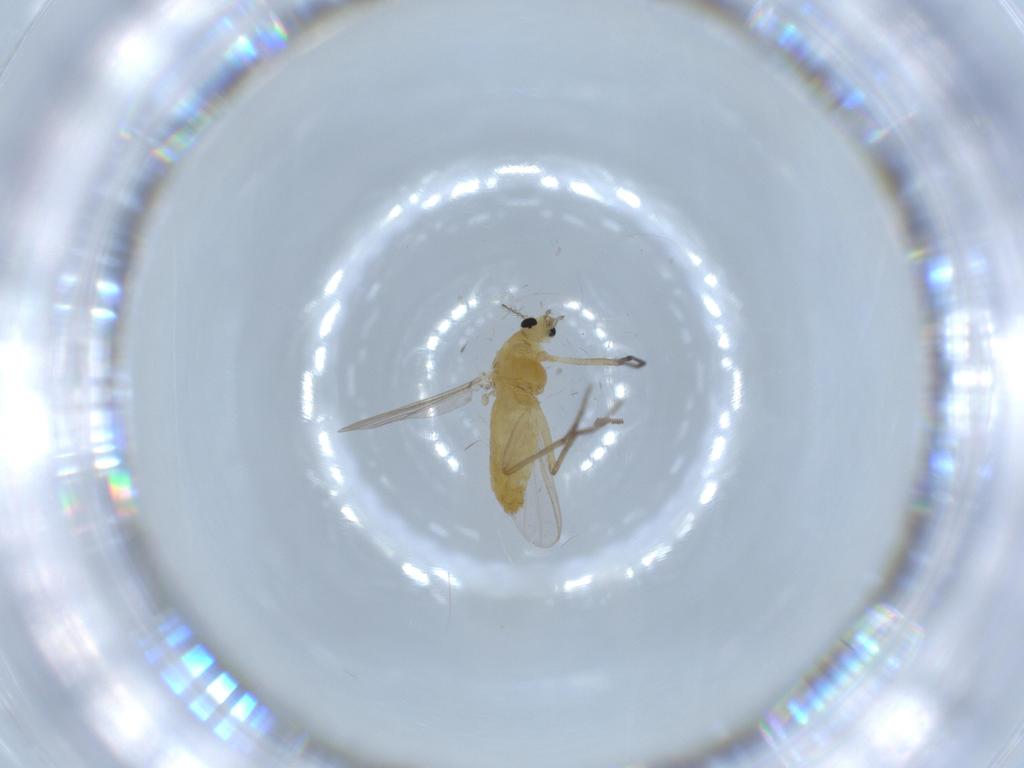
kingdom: Animalia
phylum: Arthropoda
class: Insecta
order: Diptera
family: Chironomidae
